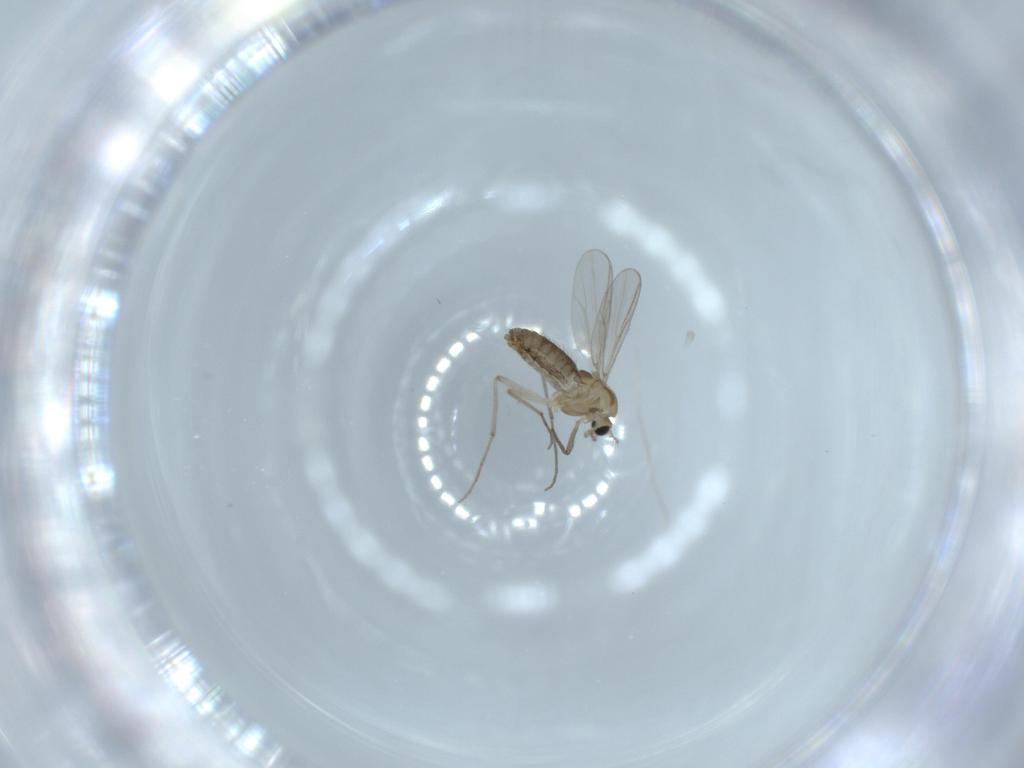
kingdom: Animalia
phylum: Arthropoda
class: Insecta
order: Diptera
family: Chironomidae
